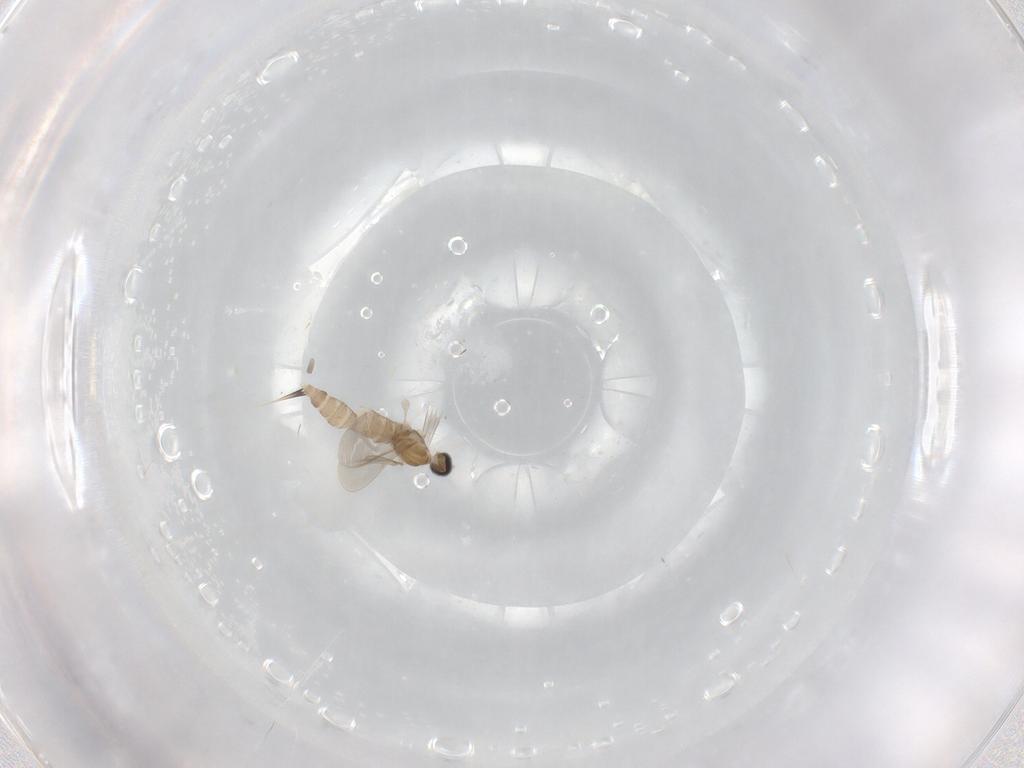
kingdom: Animalia
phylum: Arthropoda
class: Insecta
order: Diptera
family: Cecidomyiidae
